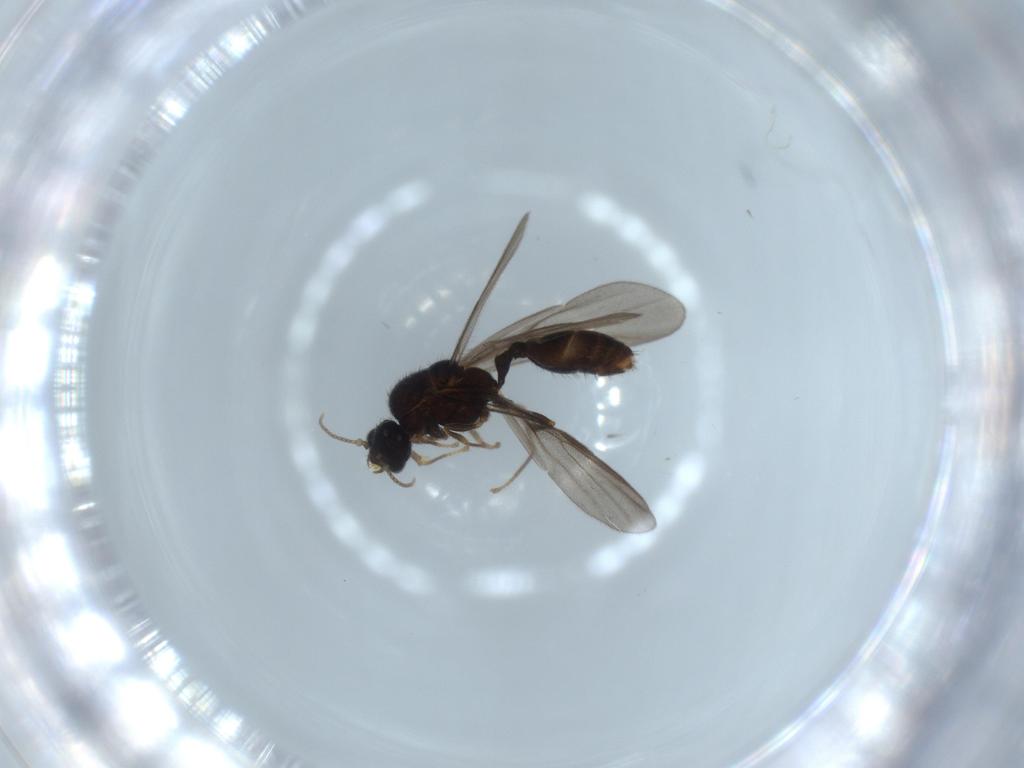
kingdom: Animalia
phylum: Arthropoda
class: Insecta
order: Hymenoptera
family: Formicidae
